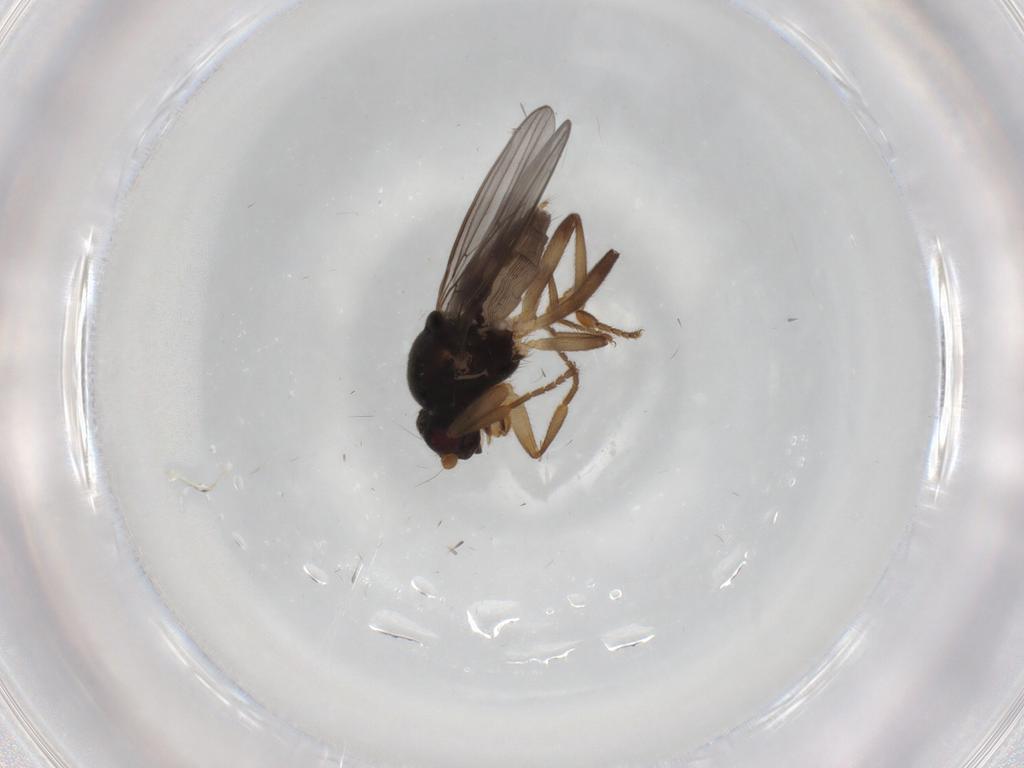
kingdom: Animalia
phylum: Arthropoda
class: Insecta
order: Diptera
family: Sphaeroceridae
